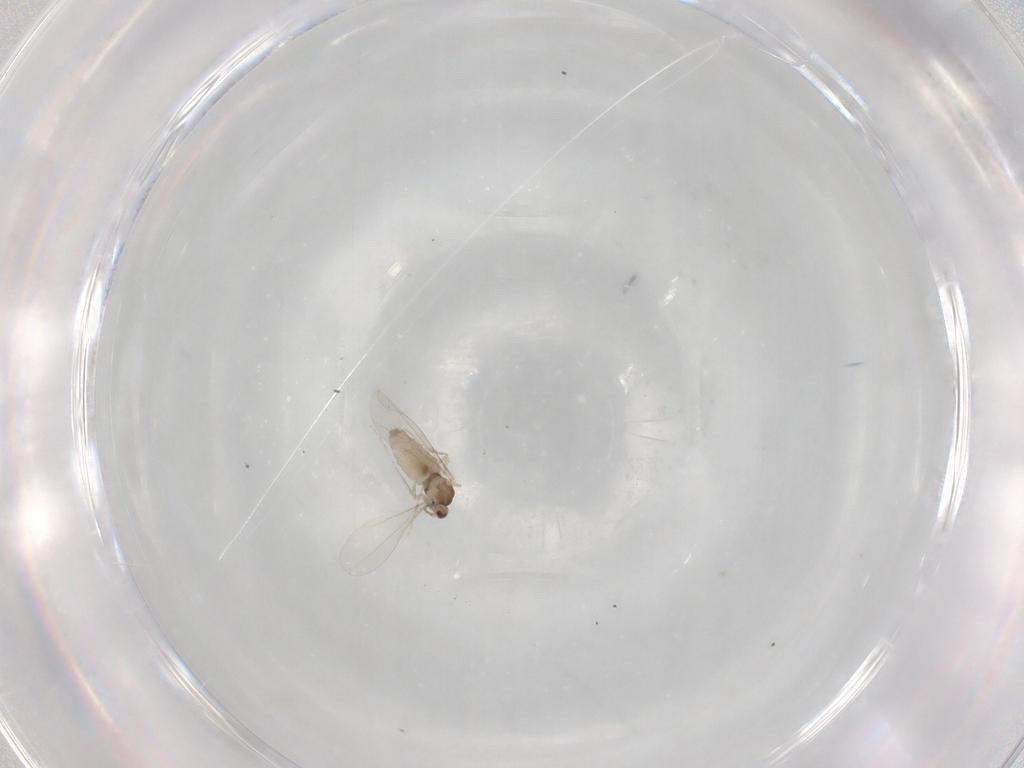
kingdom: Animalia
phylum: Arthropoda
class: Insecta
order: Diptera
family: Cecidomyiidae
